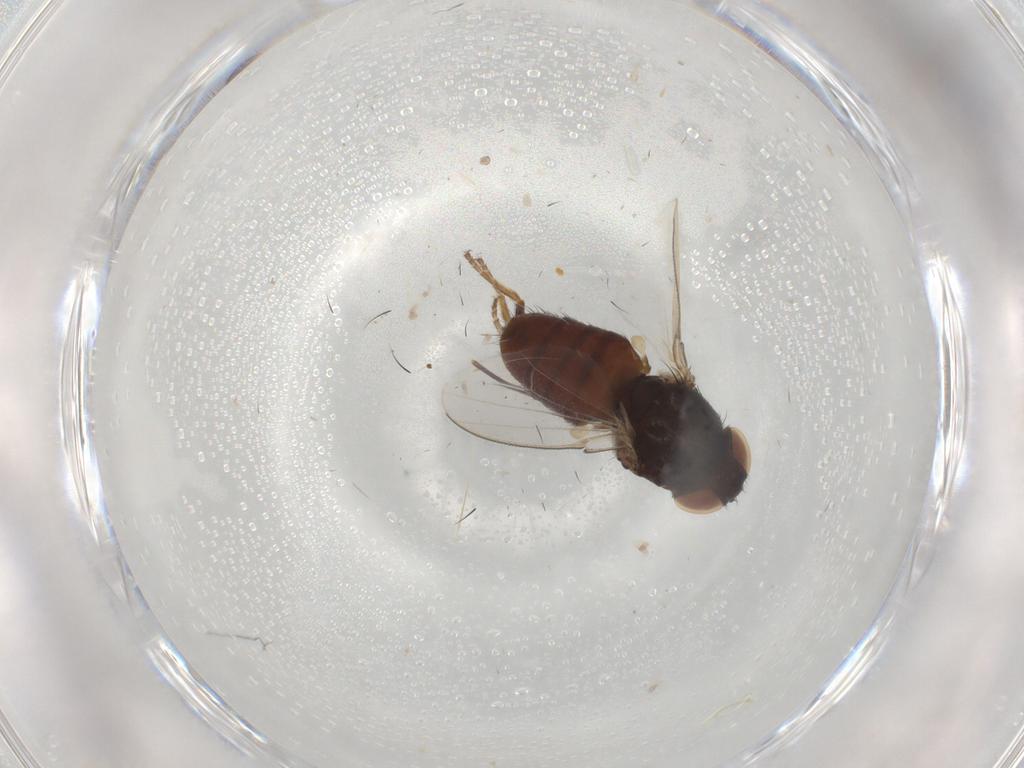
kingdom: Animalia
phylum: Arthropoda
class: Insecta
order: Diptera
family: Milichiidae
